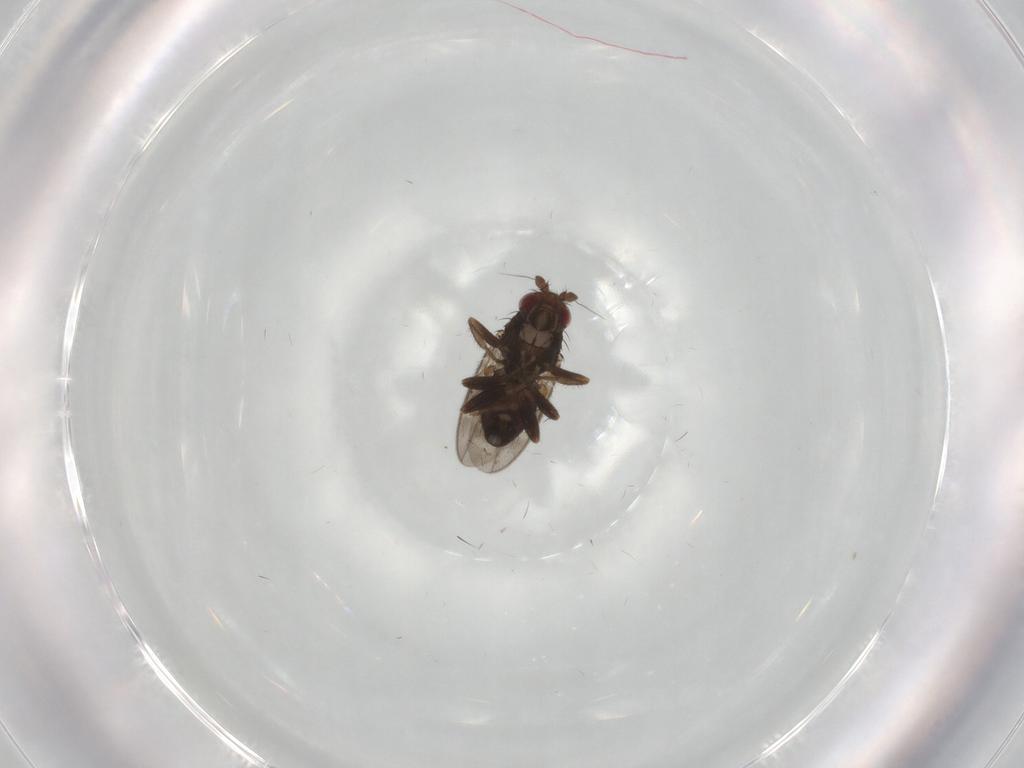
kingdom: Animalia
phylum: Arthropoda
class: Insecta
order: Diptera
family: Sphaeroceridae
